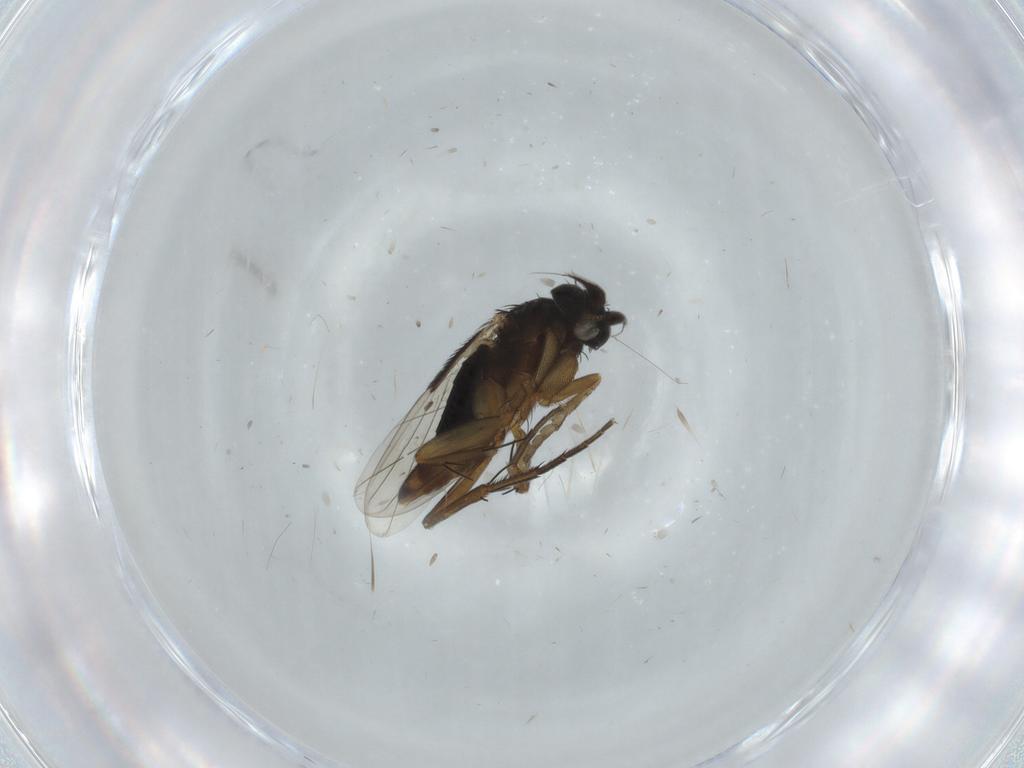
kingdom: Animalia
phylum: Arthropoda
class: Insecta
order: Diptera
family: Phoridae
